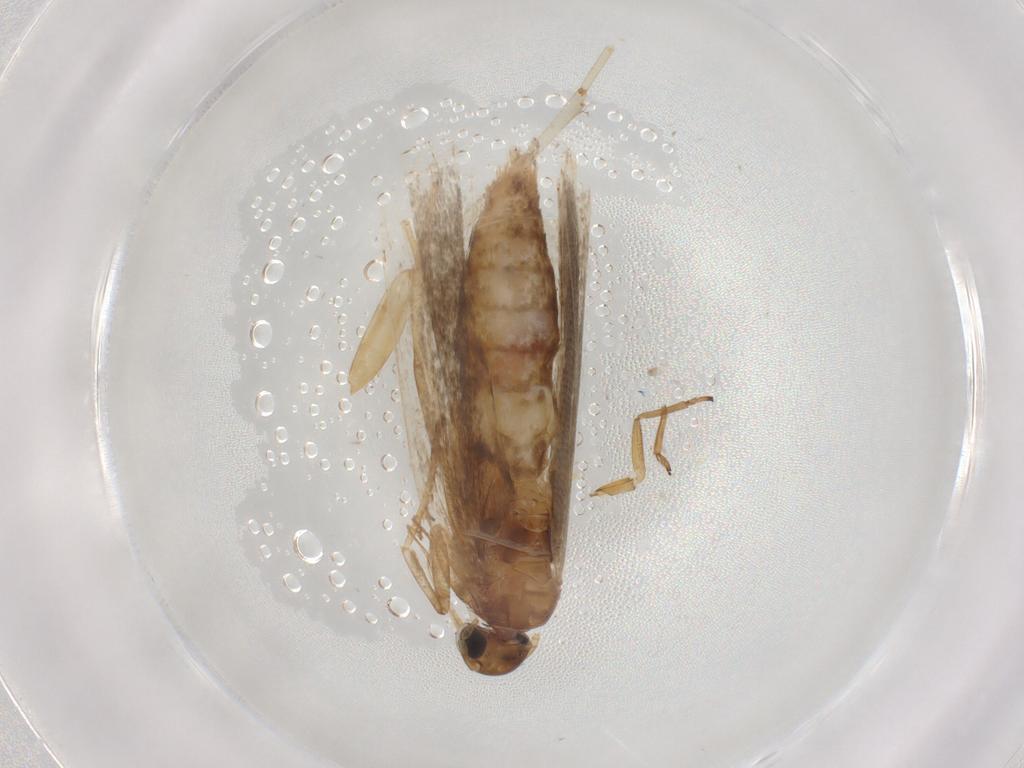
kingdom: Animalia
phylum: Arthropoda
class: Insecta
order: Lepidoptera
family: Gelechiidae
